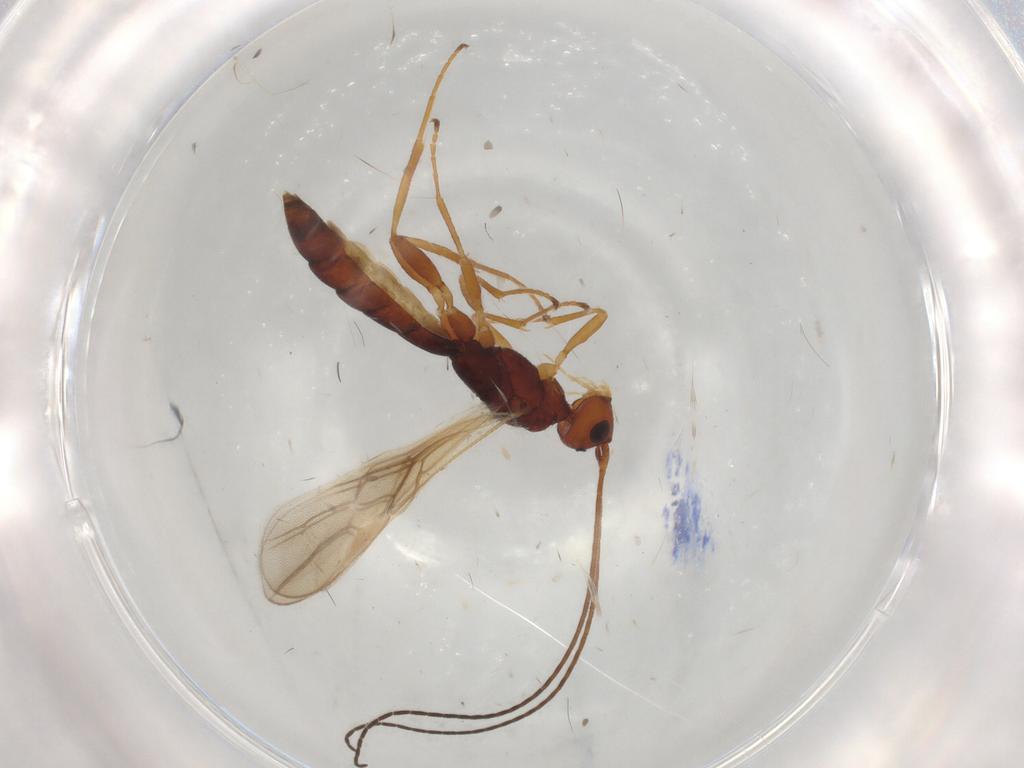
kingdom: Animalia
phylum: Arthropoda
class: Insecta
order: Hymenoptera
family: Braconidae
